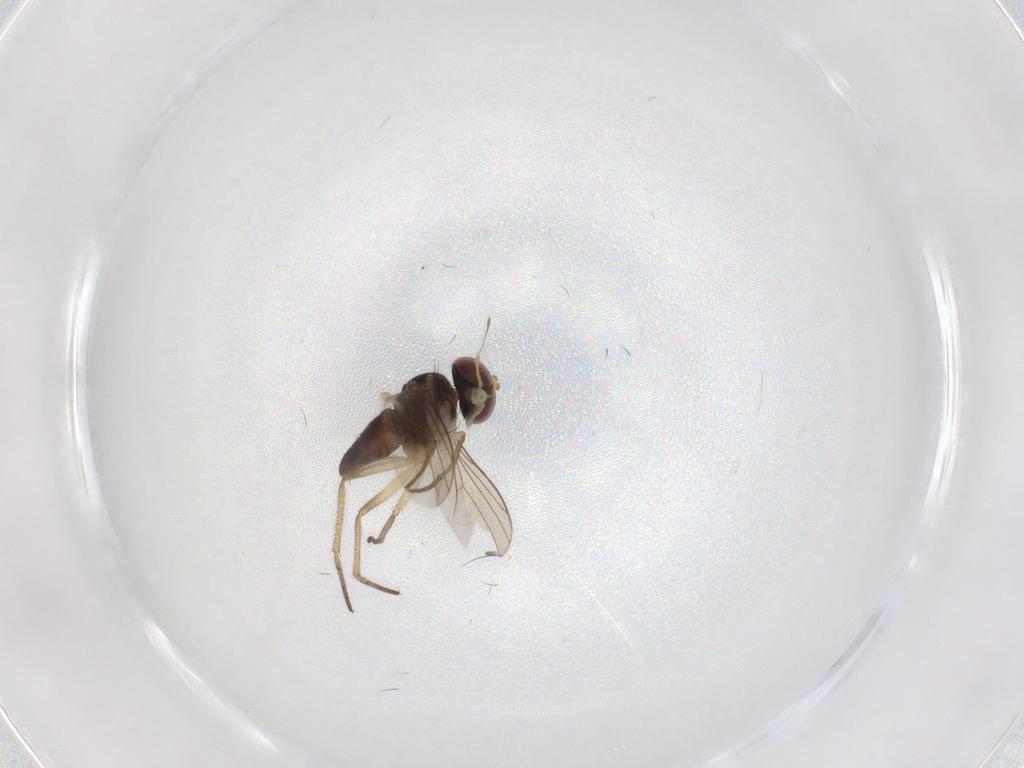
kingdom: Animalia
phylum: Arthropoda
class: Insecta
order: Diptera
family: Dolichopodidae
